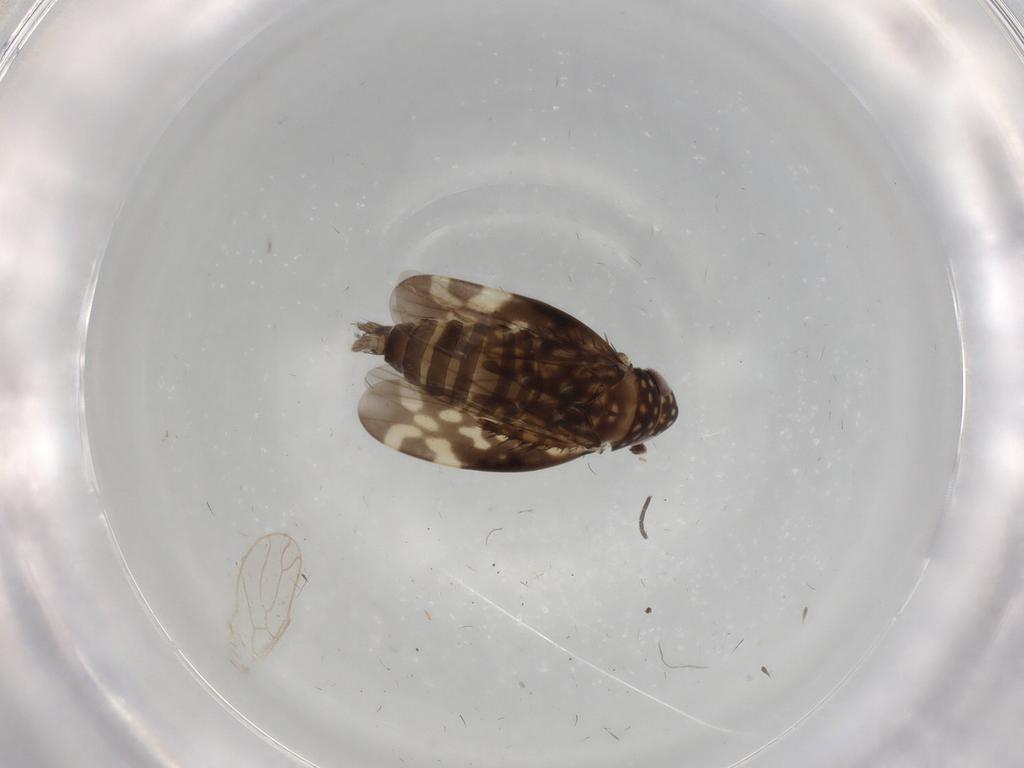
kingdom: Animalia
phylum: Arthropoda
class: Insecta
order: Hemiptera
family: Cicadellidae
